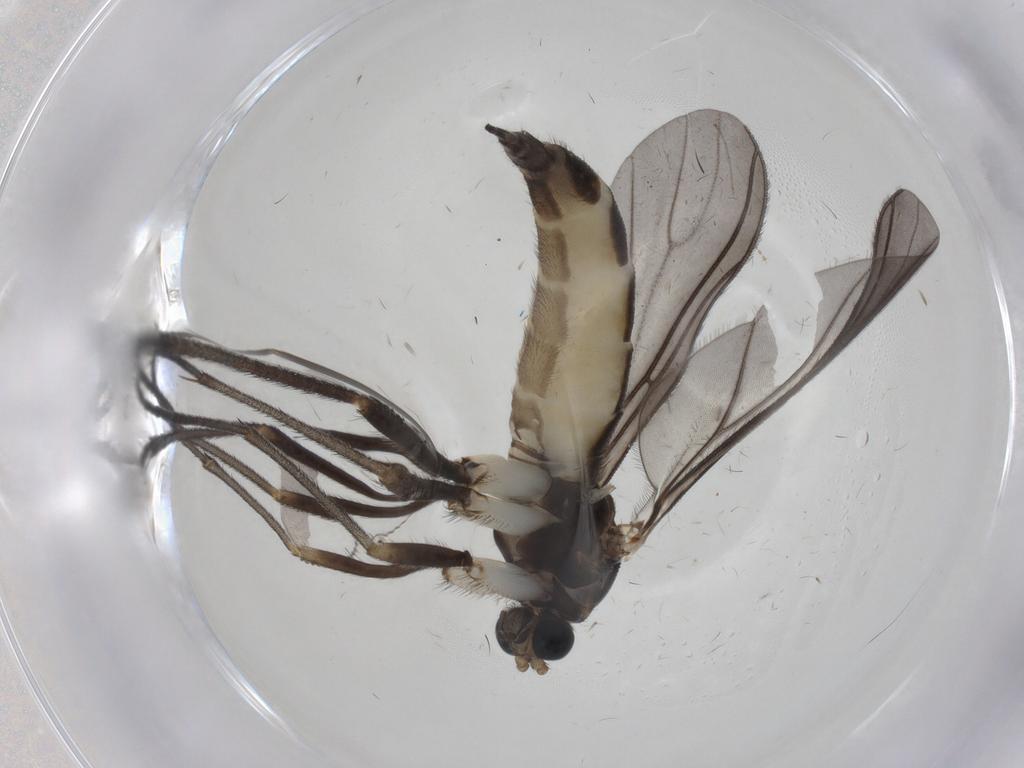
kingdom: Animalia
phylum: Arthropoda
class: Insecta
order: Diptera
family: Sciaridae
